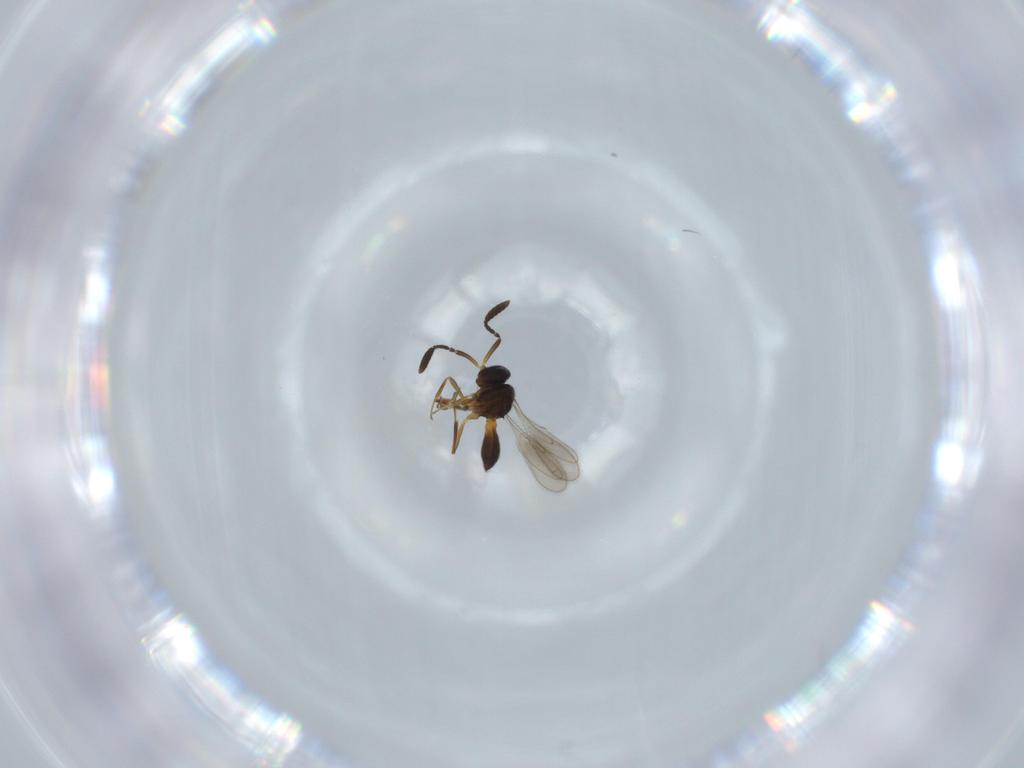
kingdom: Animalia
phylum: Arthropoda
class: Insecta
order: Hymenoptera
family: Scelionidae
